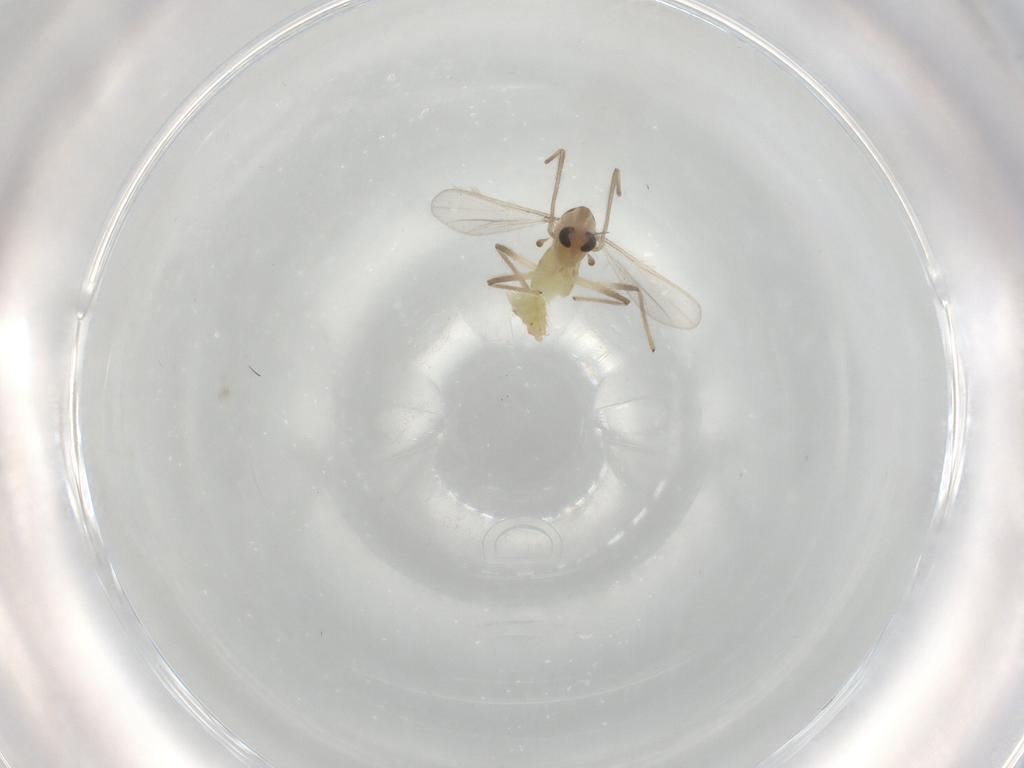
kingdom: Animalia
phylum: Arthropoda
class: Insecta
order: Diptera
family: Chironomidae
